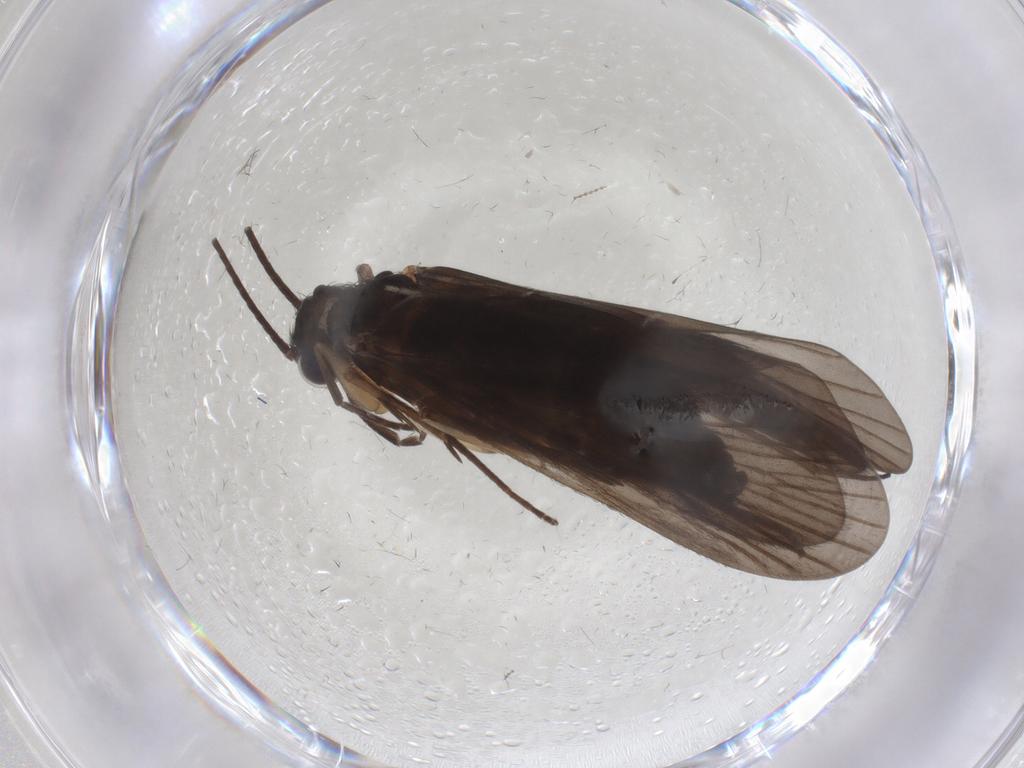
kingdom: Animalia
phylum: Arthropoda
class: Insecta
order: Trichoptera
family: Philopotamidae
